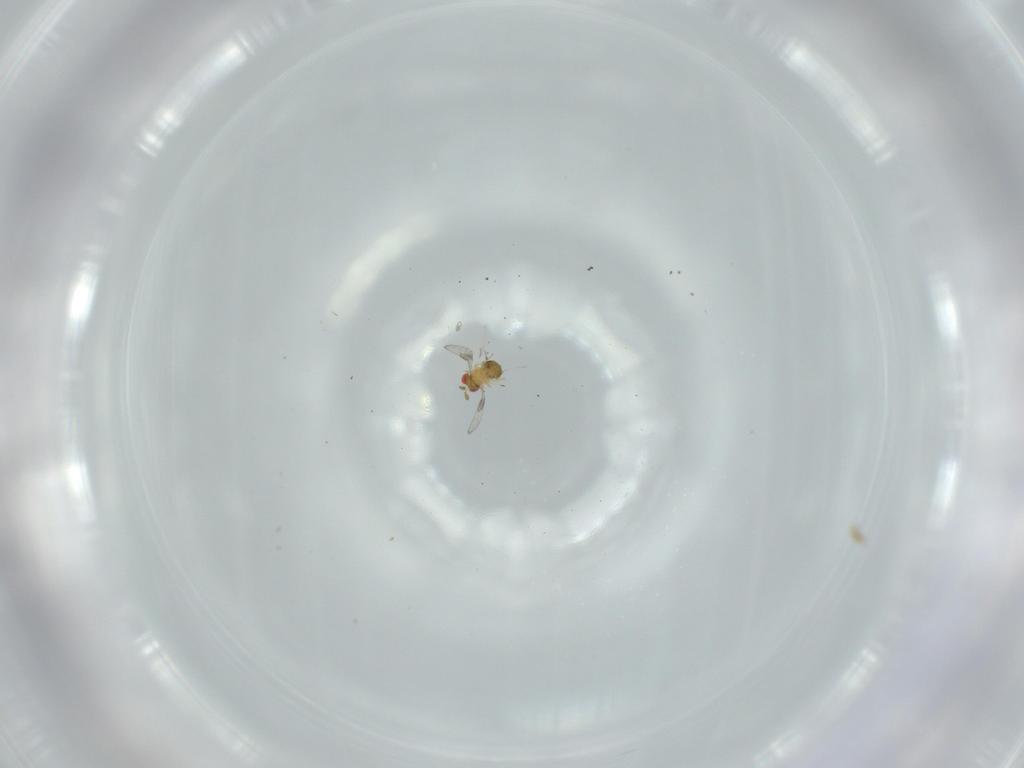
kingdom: Animalia
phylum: Arthropoda
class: Insecta
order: Hymenoptera
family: Trichogrammatidae
